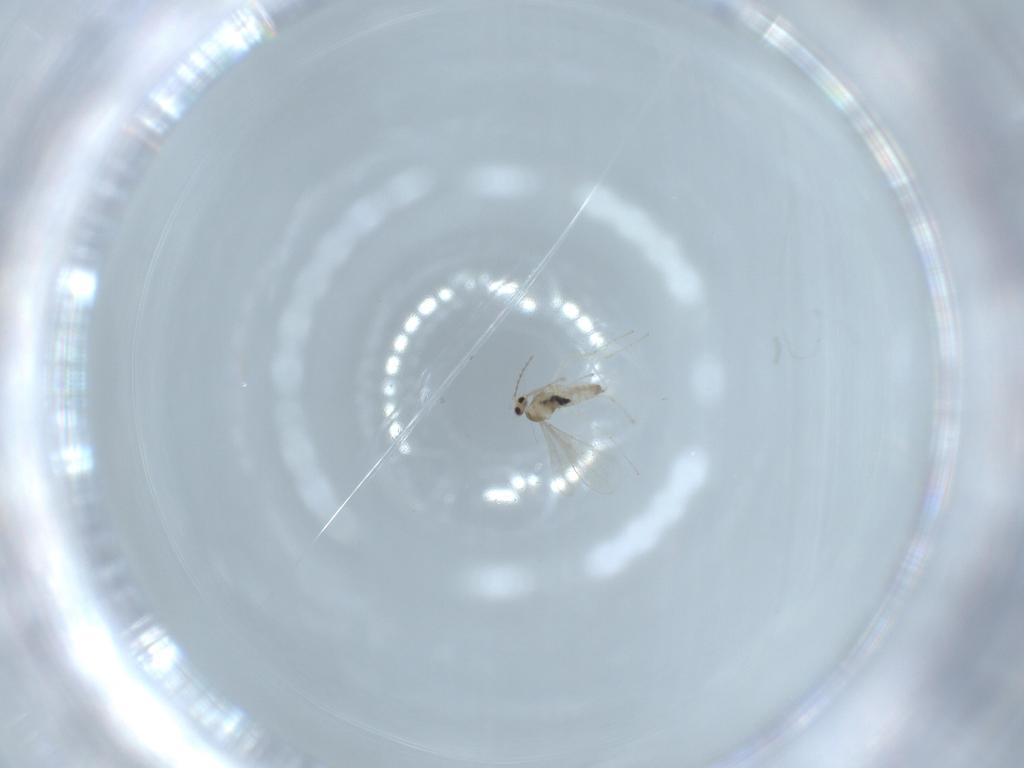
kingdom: Animalia
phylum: Arthropoda
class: Insecta
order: Diptera
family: Cecidomyiidae
